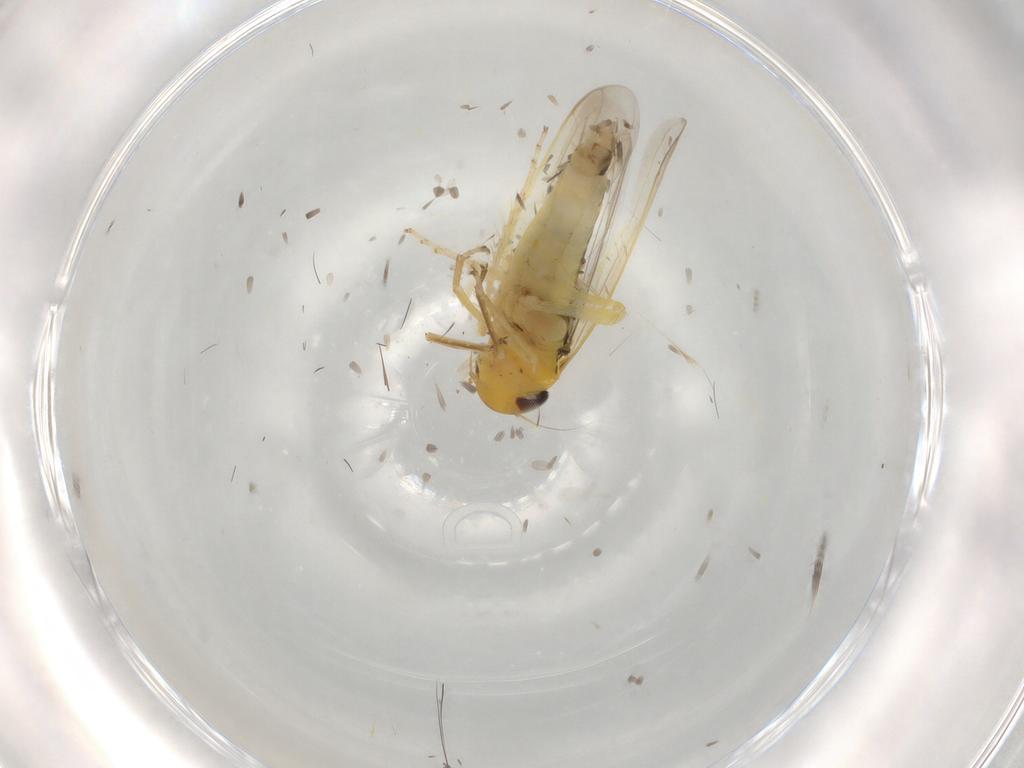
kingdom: Animalia
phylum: Arthropoda
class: Insecta
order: Hemiptera
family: Cicadellidae
